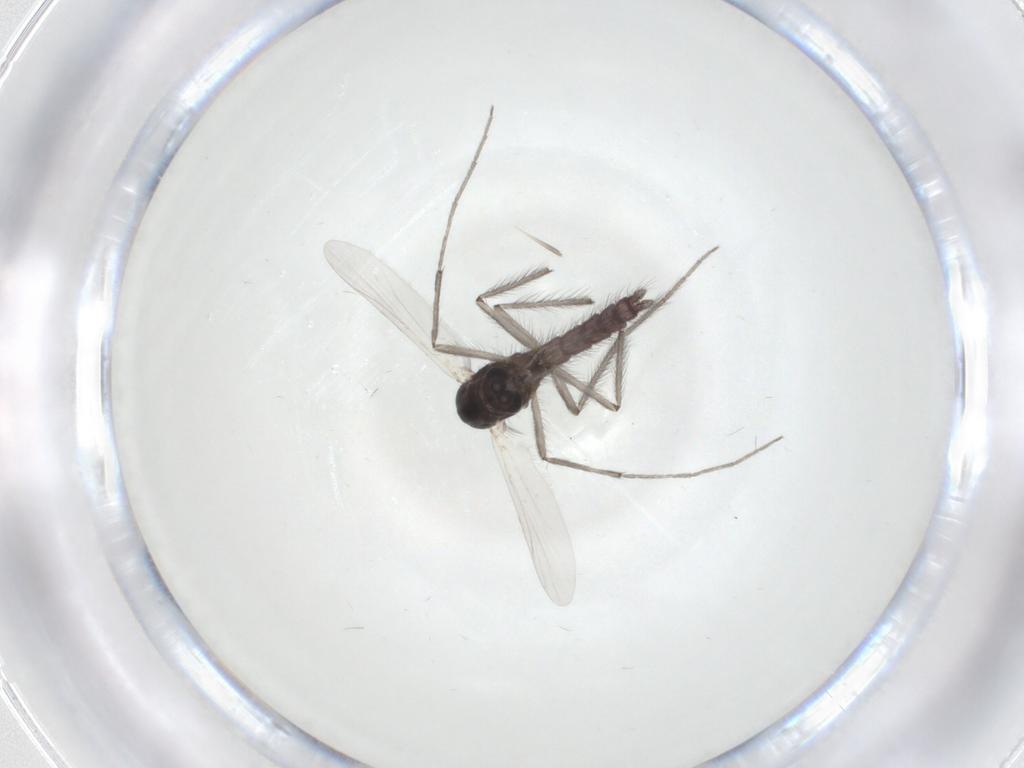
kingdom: Animalia
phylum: Arthropoda
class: Insecta
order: Diptera
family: Chironomidae
